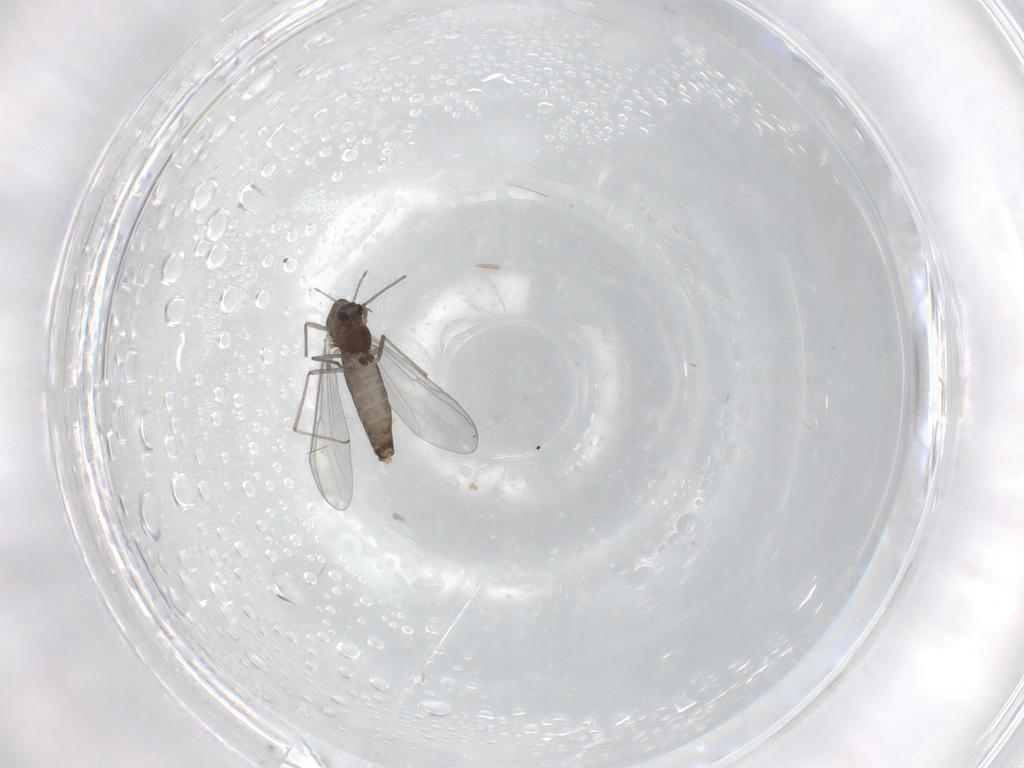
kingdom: Animalia
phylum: Arthropoda
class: Insecta
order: Diptera
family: Chironomidae
